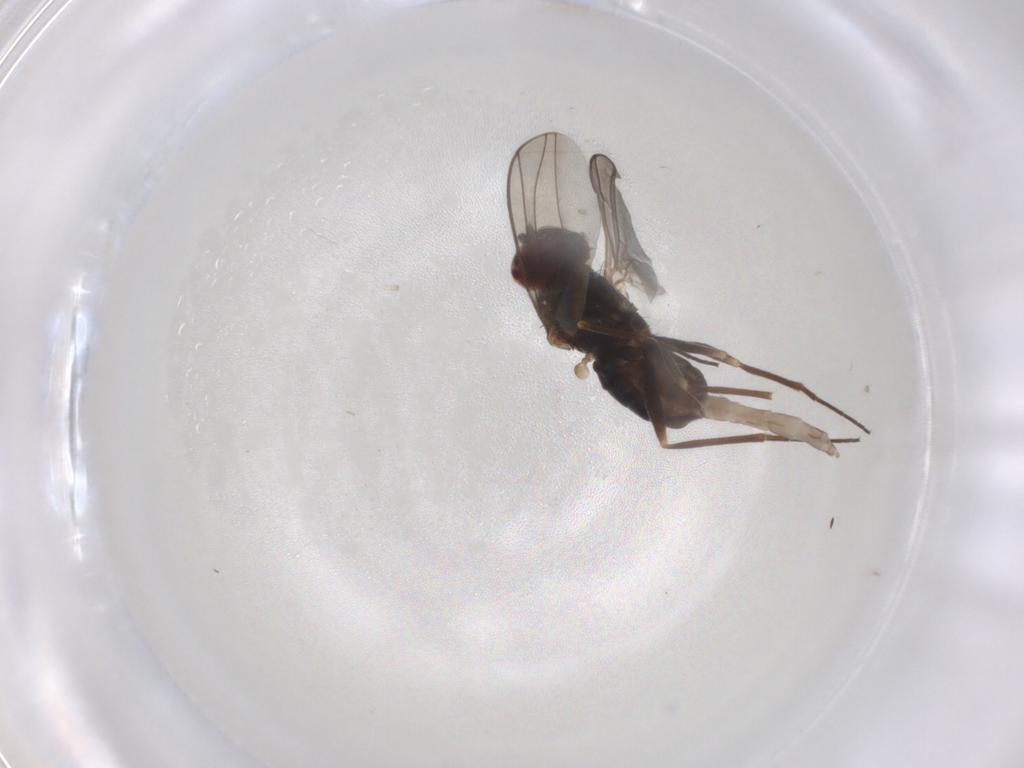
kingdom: Animalia
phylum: Arthropoda
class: Insecta
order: Diptera
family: Dolichopodidae
